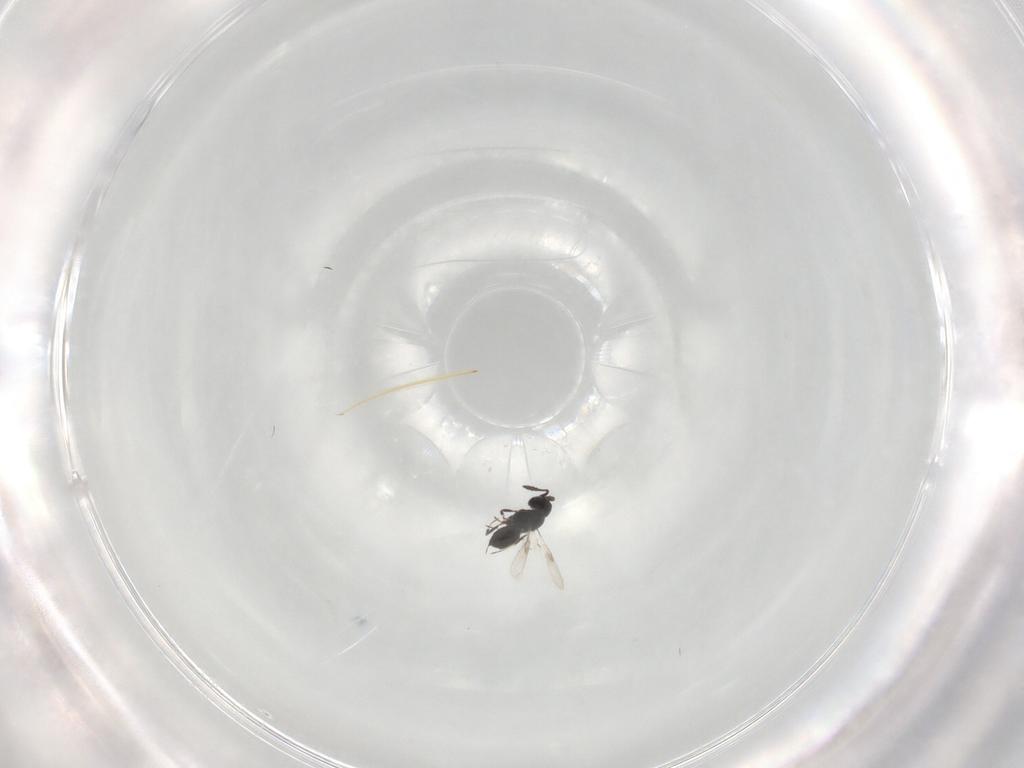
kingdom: Animalia
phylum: Arthropoda
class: Insecta
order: Hymenoptera
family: Scelionidae
